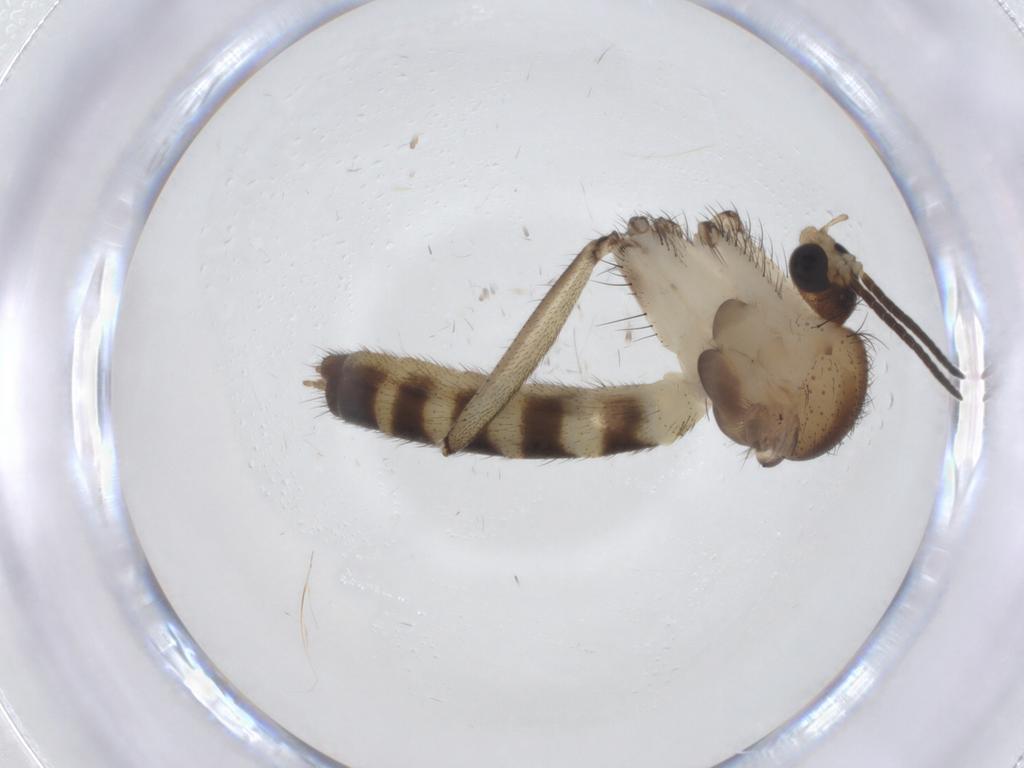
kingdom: Animalia
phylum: Arthropoda
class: Insecta
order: Diptera
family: Mycetophilidae
